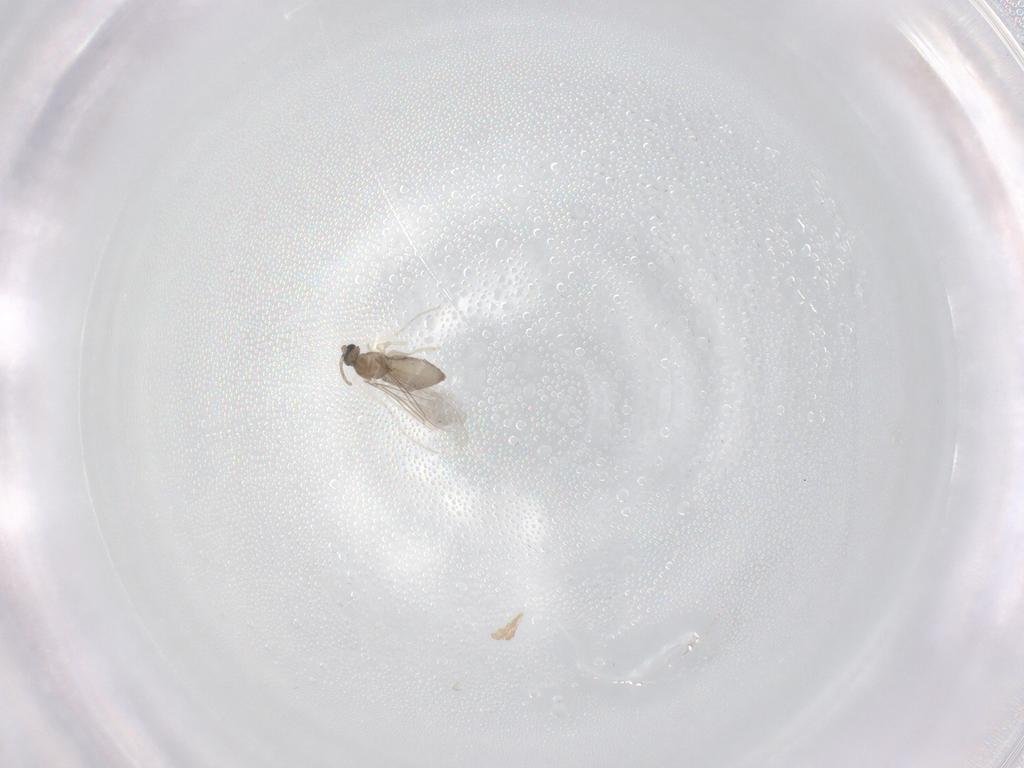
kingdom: Animalia
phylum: Arthropoda
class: Insecta
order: Diptera
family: Cecidomyiidae
